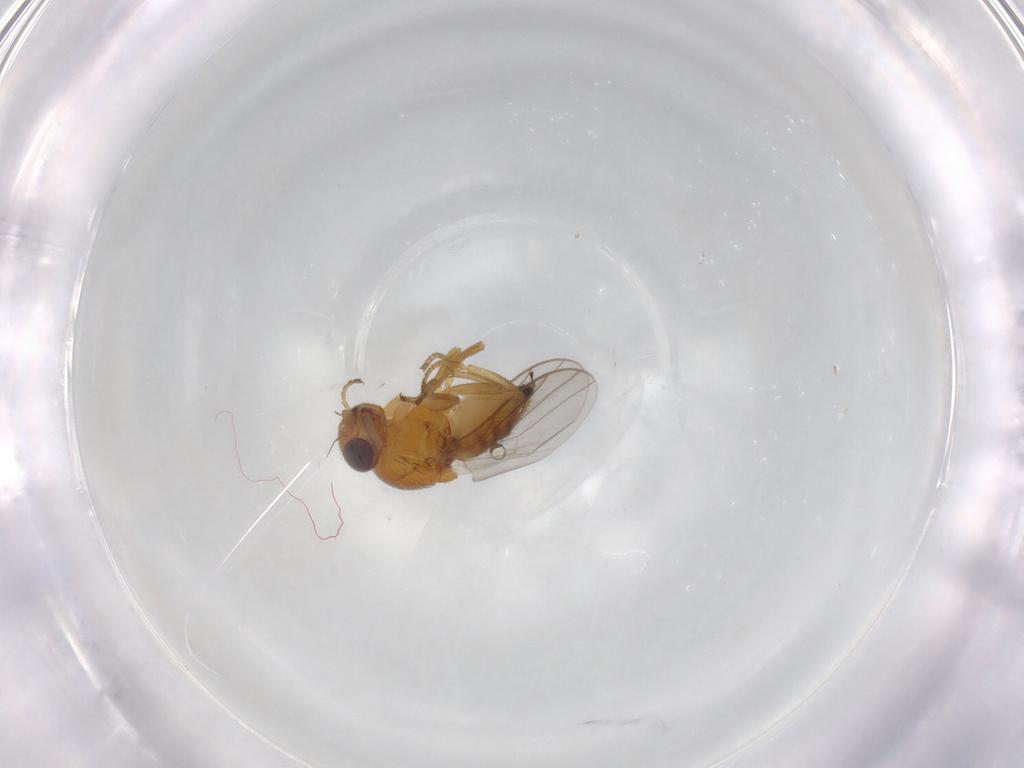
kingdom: Animalia
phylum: Arthropoda
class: Insecta
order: Diptera
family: Chloropidae
